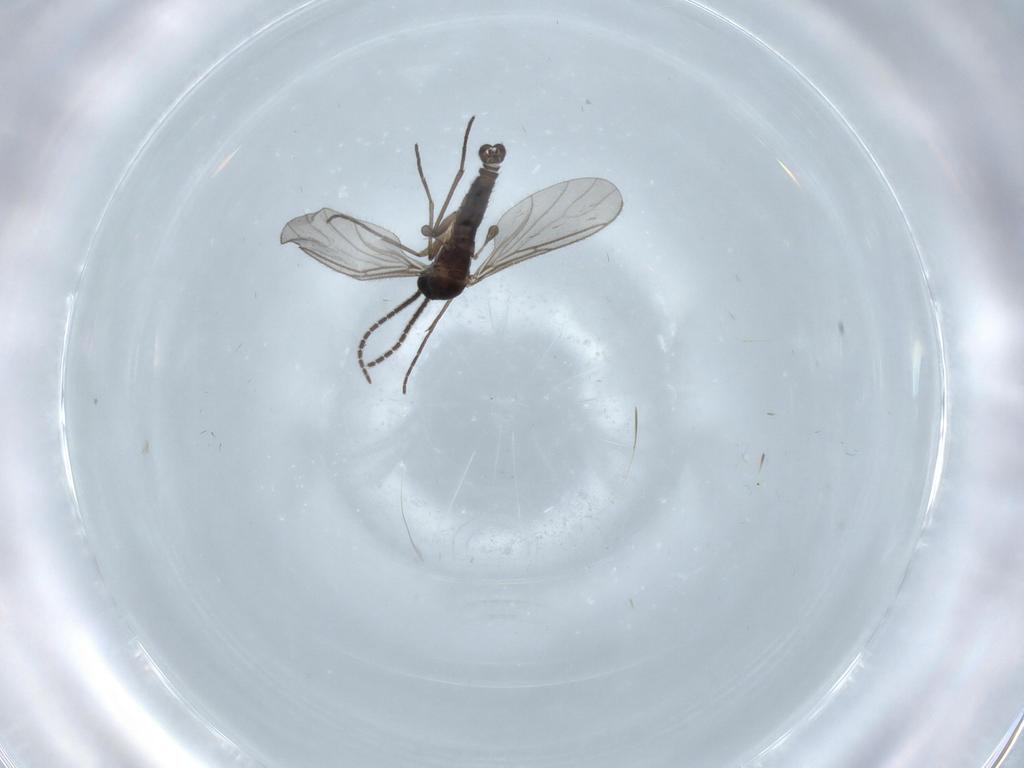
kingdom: Animalia
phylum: Arthropoda
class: Insecta
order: Diptera
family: Sciaridae
